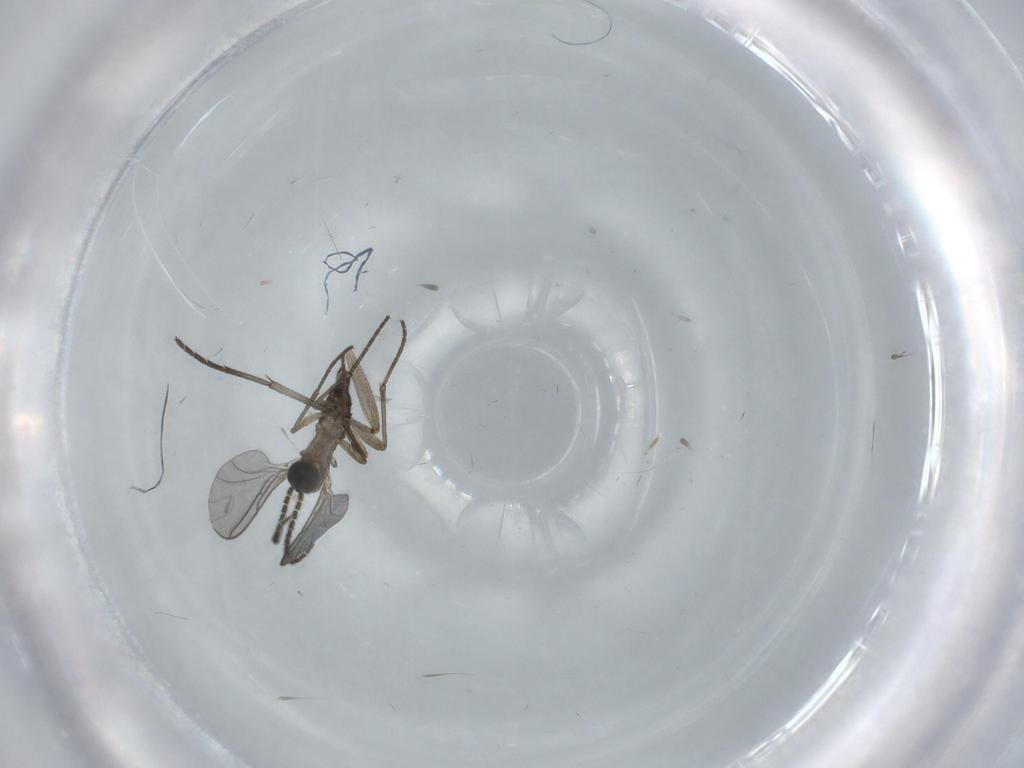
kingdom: Animalia
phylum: Arthropoda
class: Insecta
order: Diptera
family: Sciaridae
